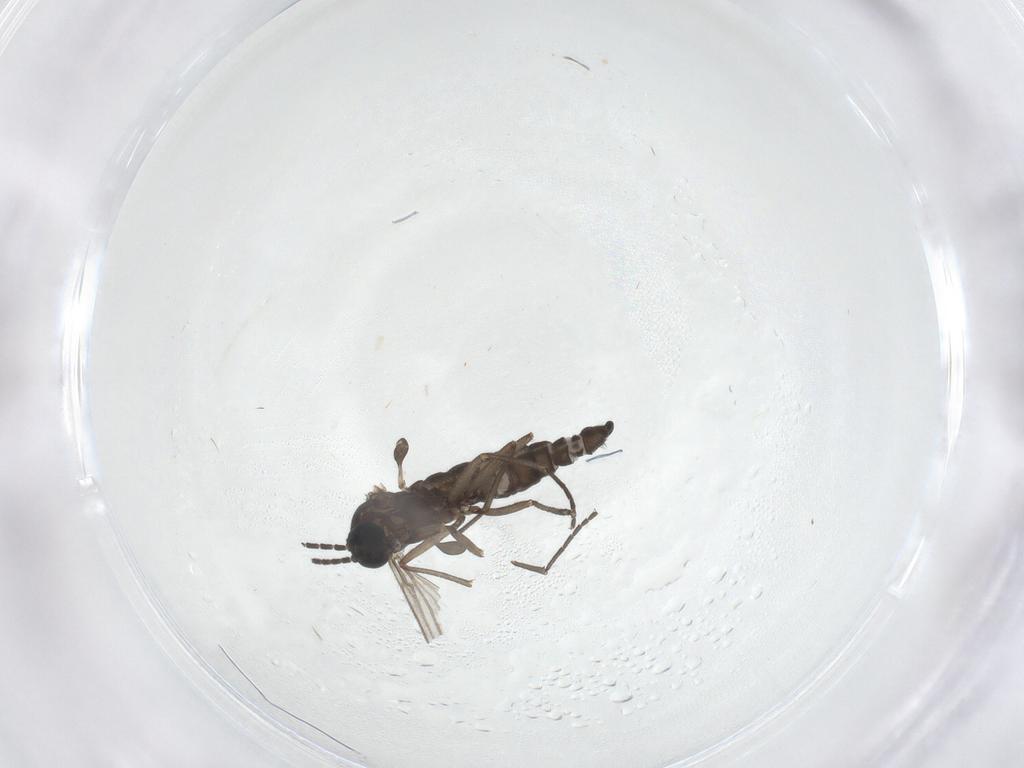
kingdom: Animalia
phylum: Arthropoda
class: Insecta
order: Diptera
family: Sciaridae
